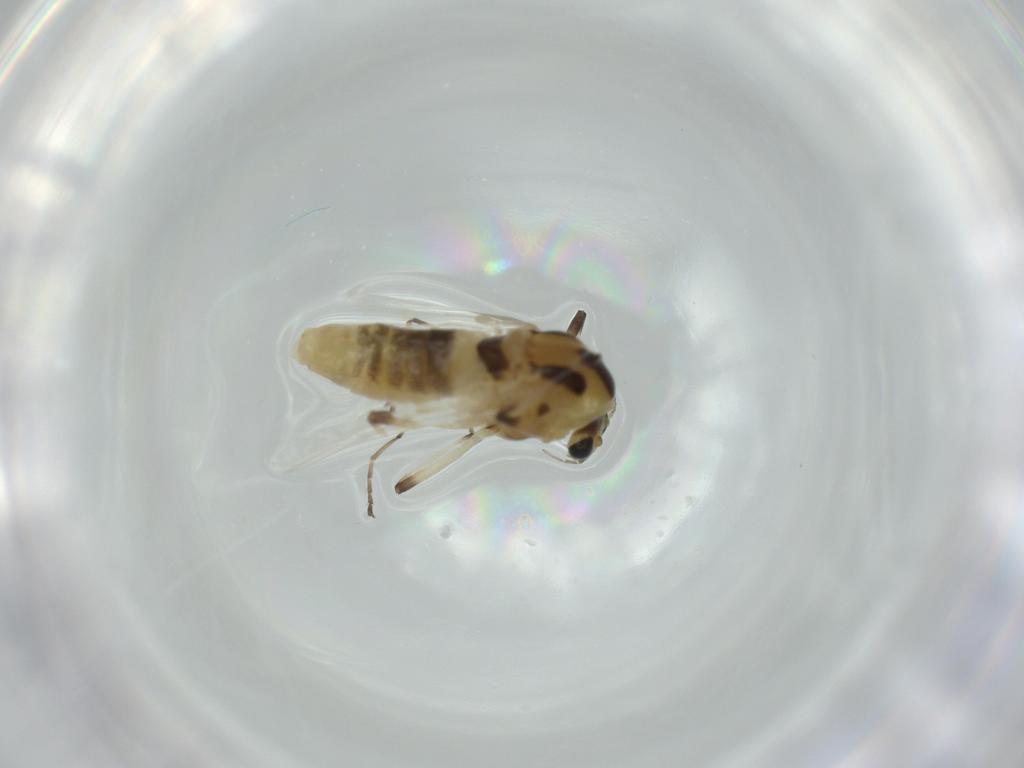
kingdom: Animalia
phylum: Arthropoda
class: Insecta
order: Diptera
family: Chironomidae
